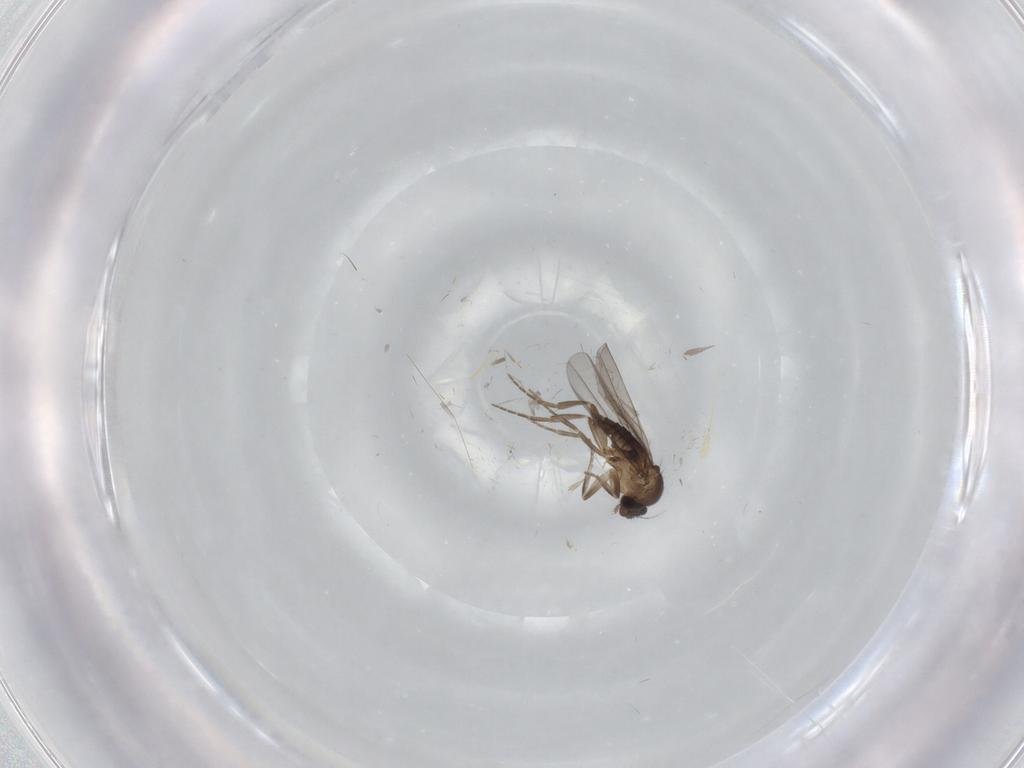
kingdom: Animalia
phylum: Arthropoda
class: Insecta
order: Diptera
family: Cecidomyiidae
